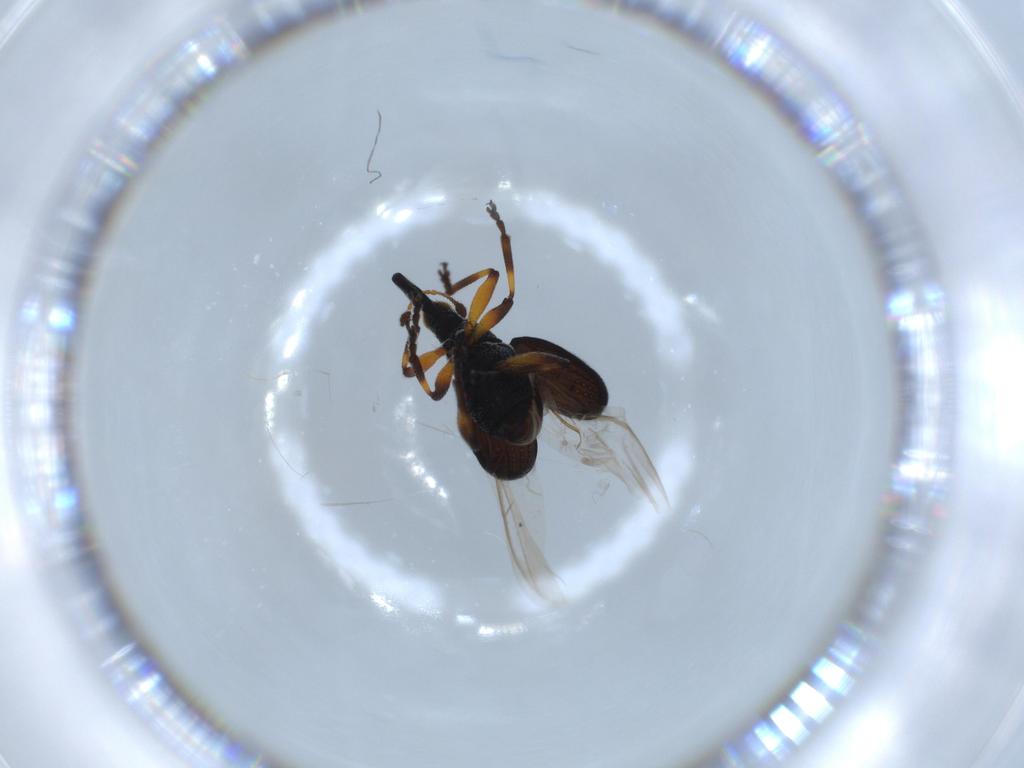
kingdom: Animalia
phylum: Arthropoda
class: Insecta
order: Coleoptera
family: Brentidae
